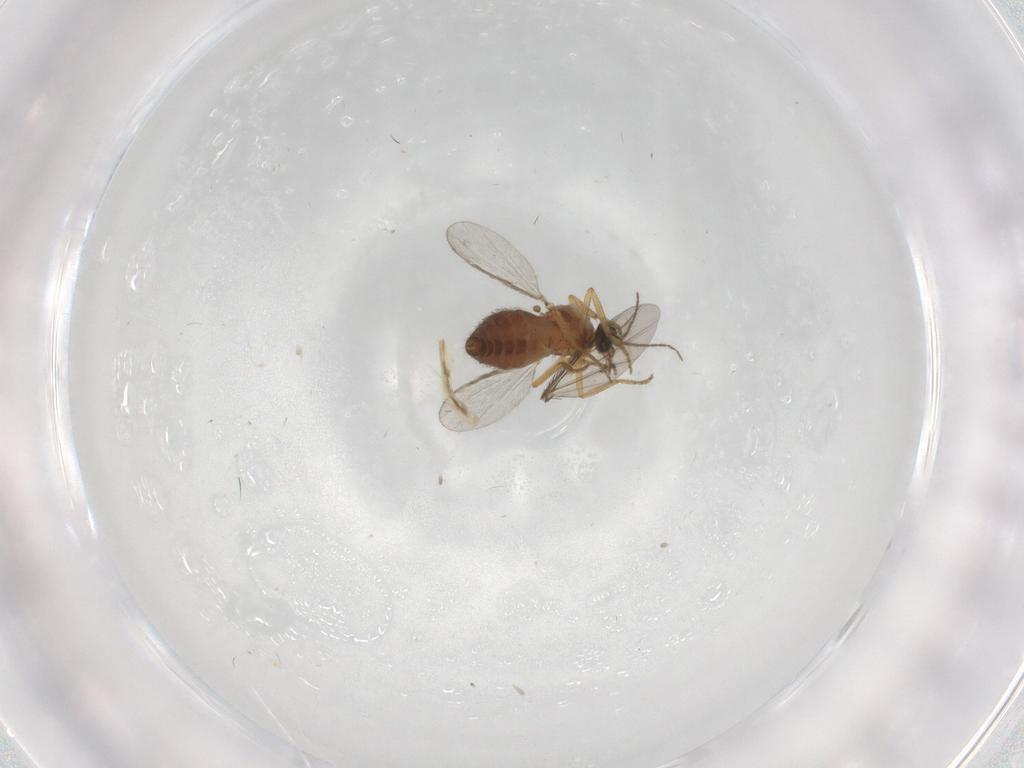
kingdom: Animalia
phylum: Arthropoda
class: Insecta
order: Diptera
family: Ceratopogonidae
